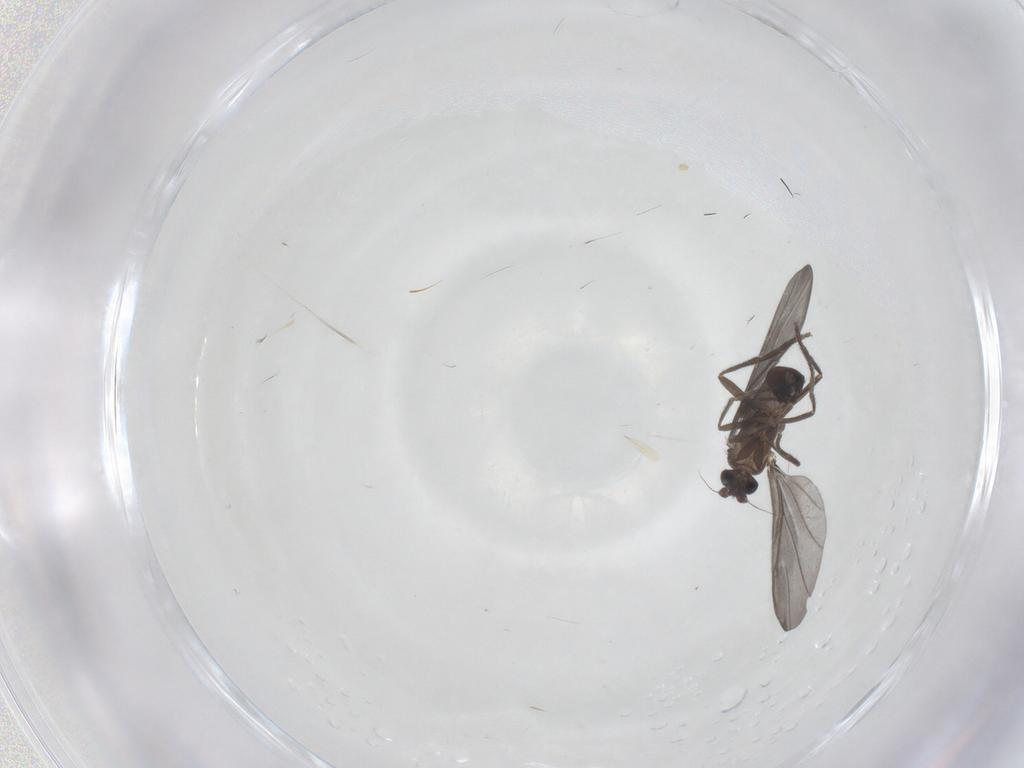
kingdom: Animalia
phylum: Arthropoda
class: Insecta
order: Diptera
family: Phoridae
